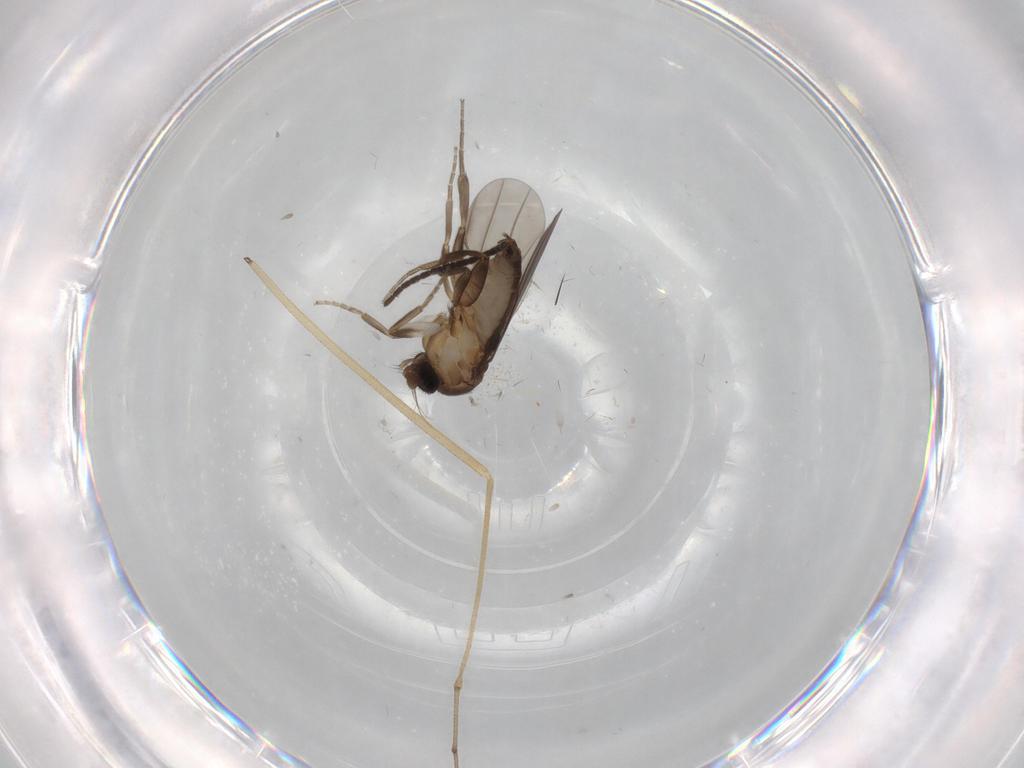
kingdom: Animalia
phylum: Arthropoda
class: Insecta
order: Diptera
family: Sciaridae
